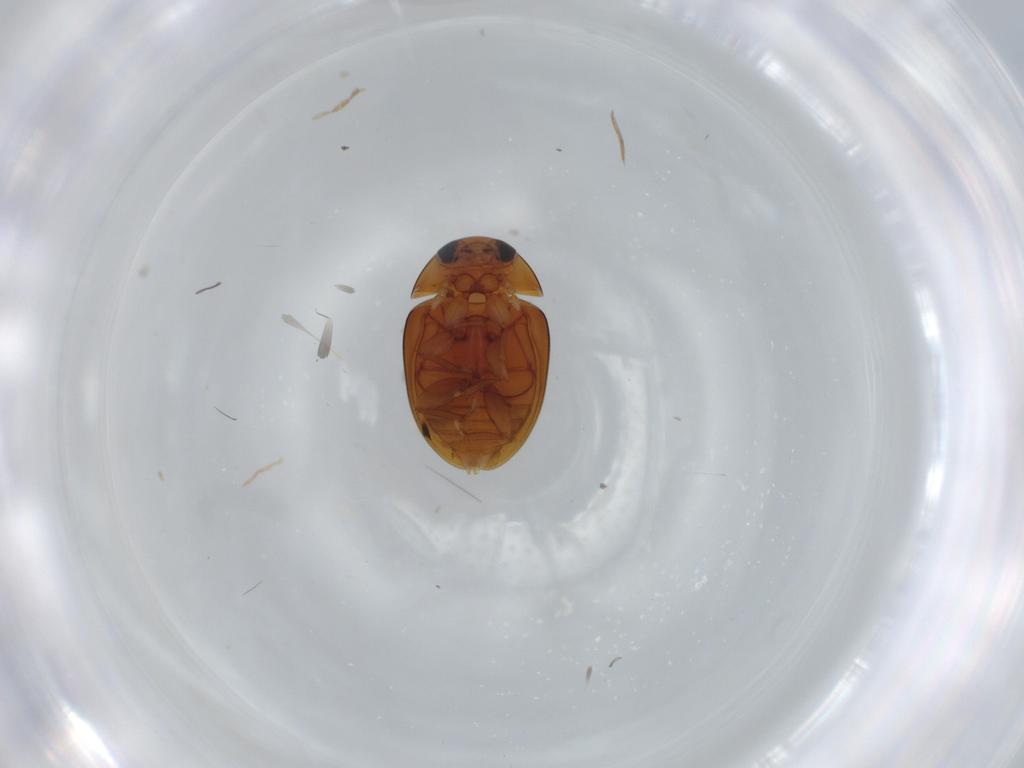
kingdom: Animalia
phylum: Arthropoda
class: Insecta
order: Coleoptera
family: Phalacridae
